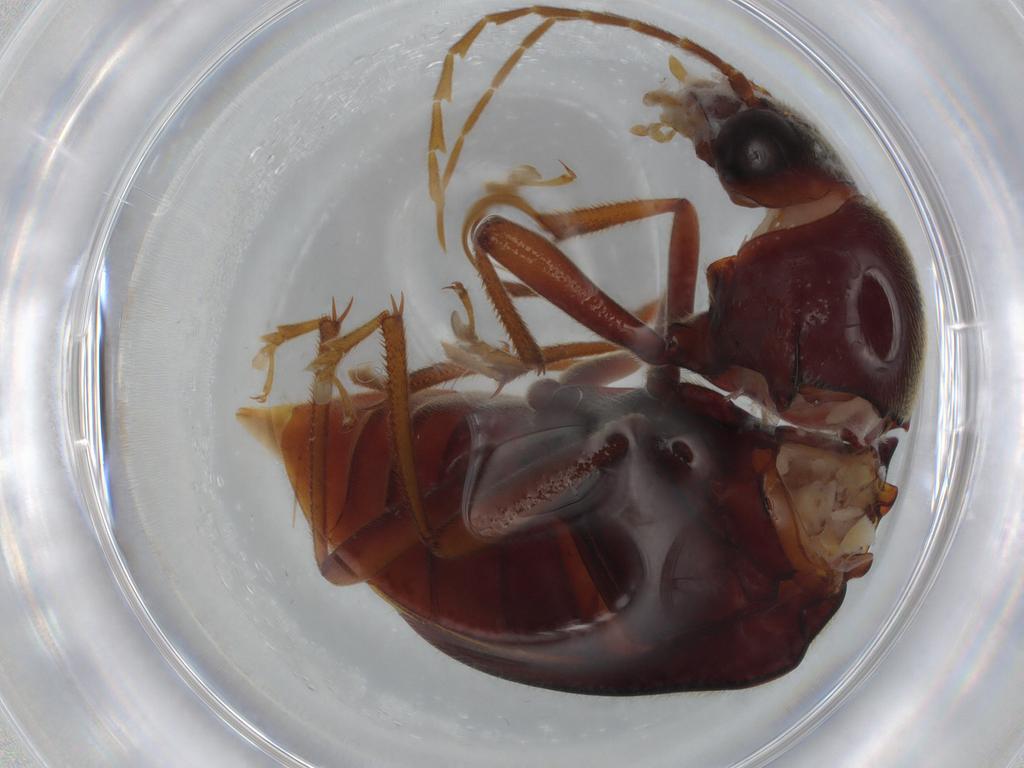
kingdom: Animalia
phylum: Arthropoda
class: Insecta
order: Coleoptera
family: Ptilodactylidae
